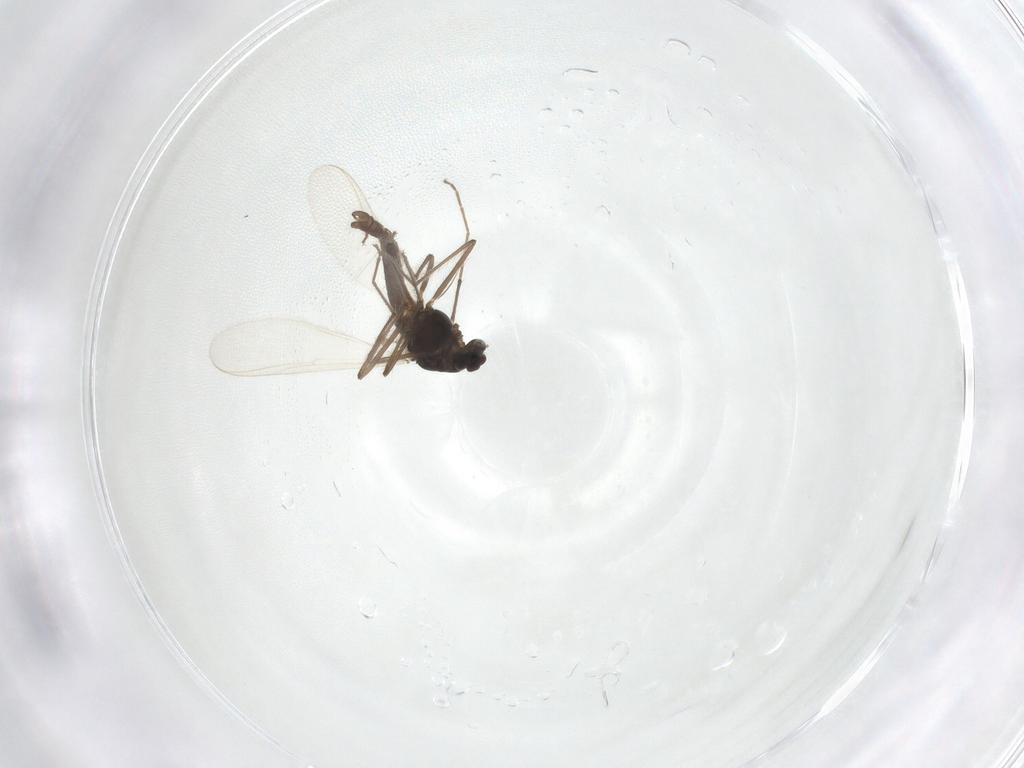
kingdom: Animalia
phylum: Arthropoda
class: Insecta
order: Diptera
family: Chironomidae
